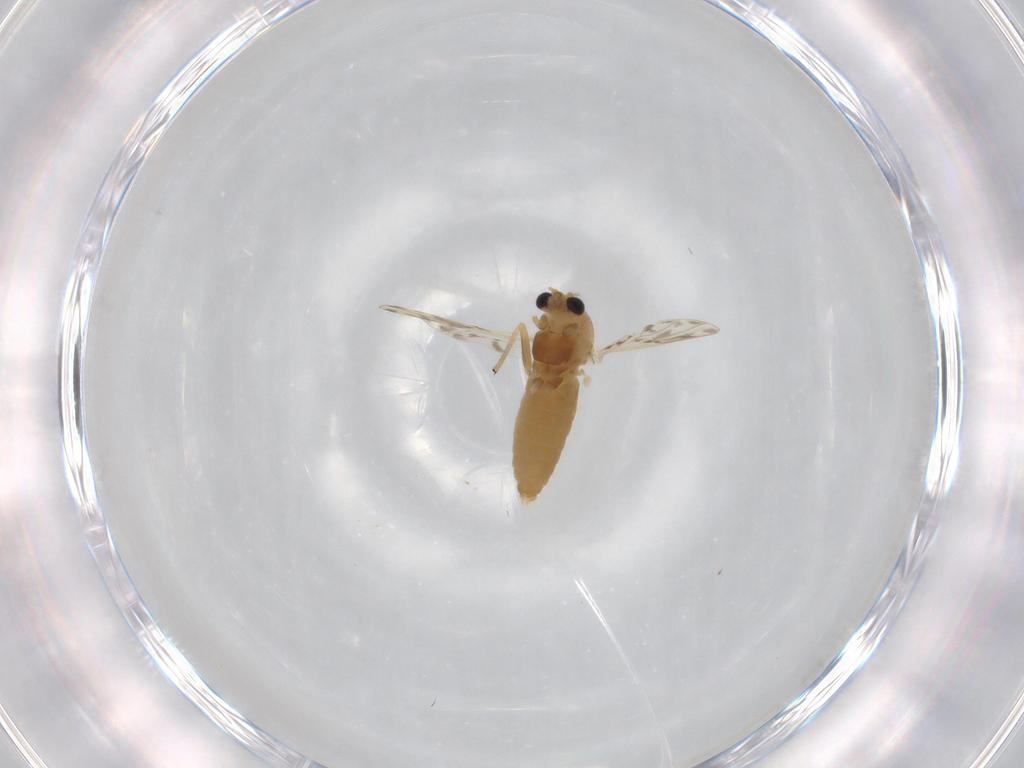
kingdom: Animalia
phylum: Arthropoda
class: Insecta
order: Diptera
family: Chironomidae
